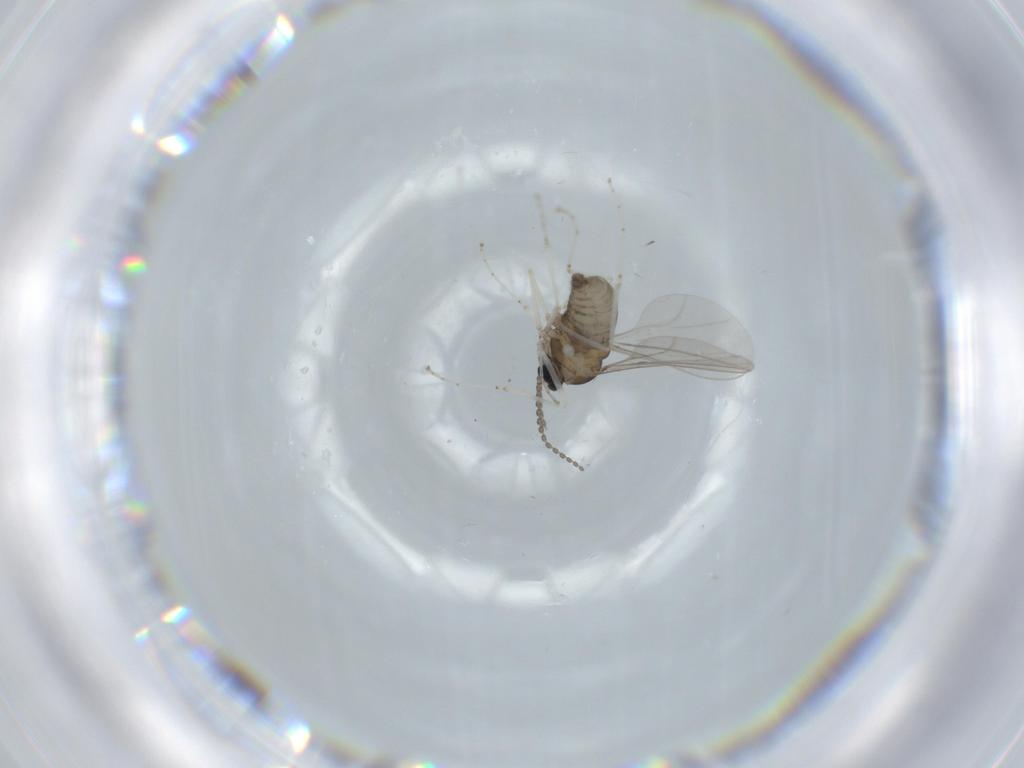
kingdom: Animalia
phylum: Arthropoda
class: Insecta
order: Diptera
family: Cecidomyiidae
